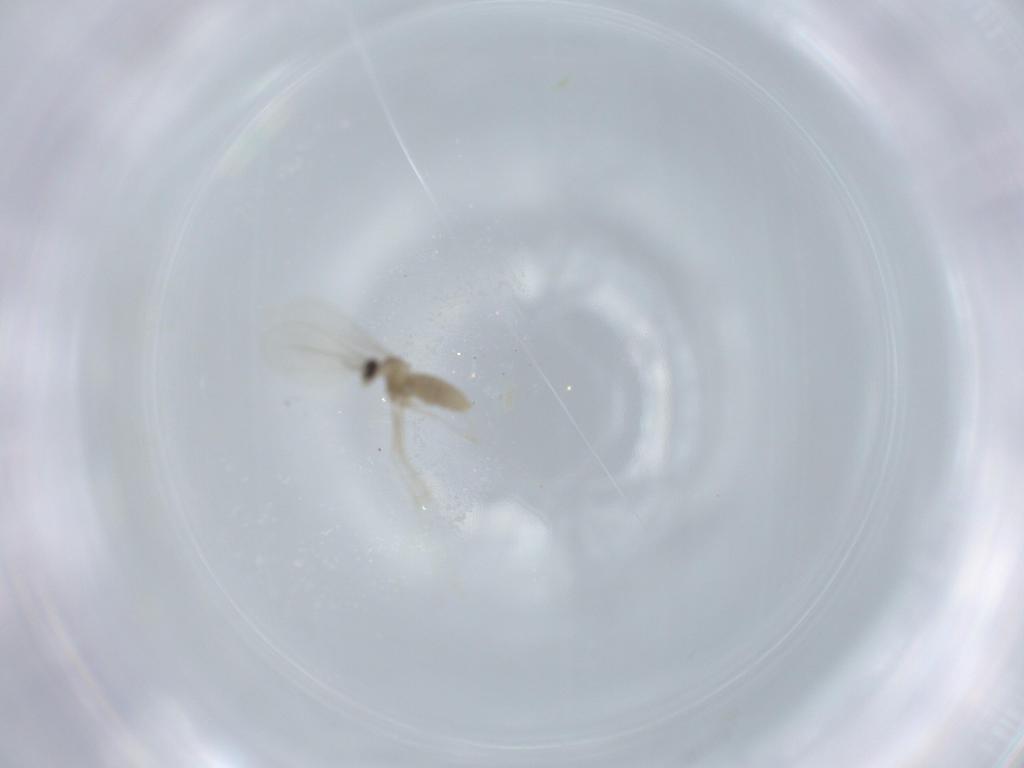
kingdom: Animalia
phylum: Arthropoda
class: Insecta
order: Diptera
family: Cecidomyiidae
